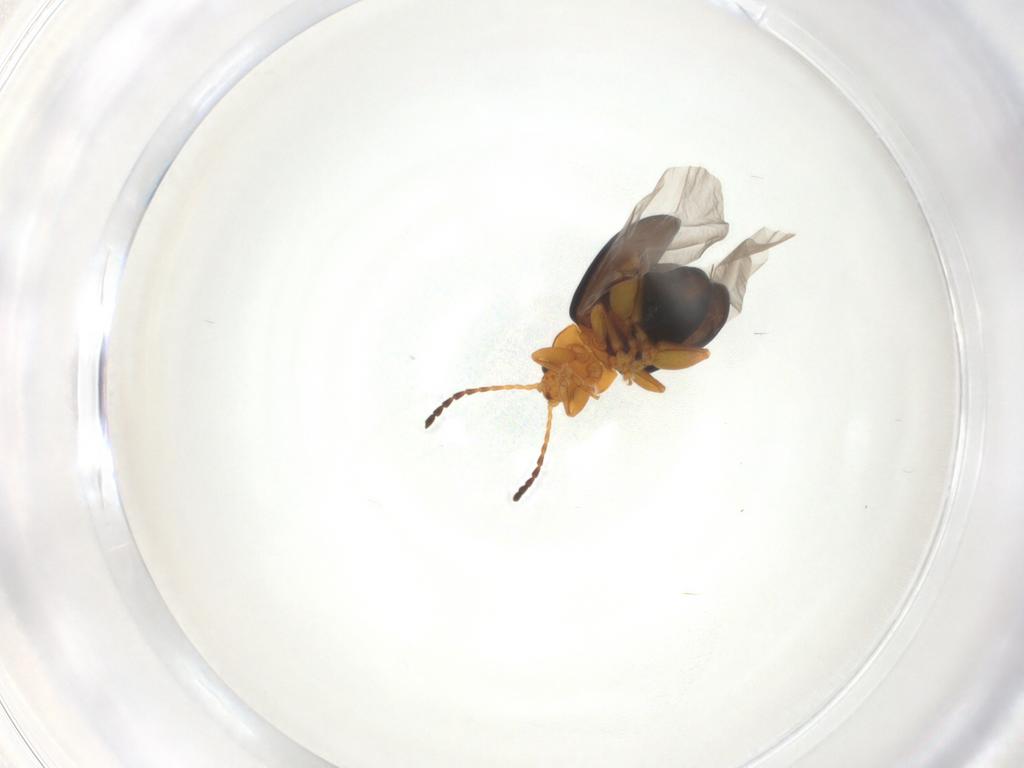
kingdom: Animalia
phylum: Arthropoda
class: Insecta
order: Coleoptera
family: Chrysomelidae
